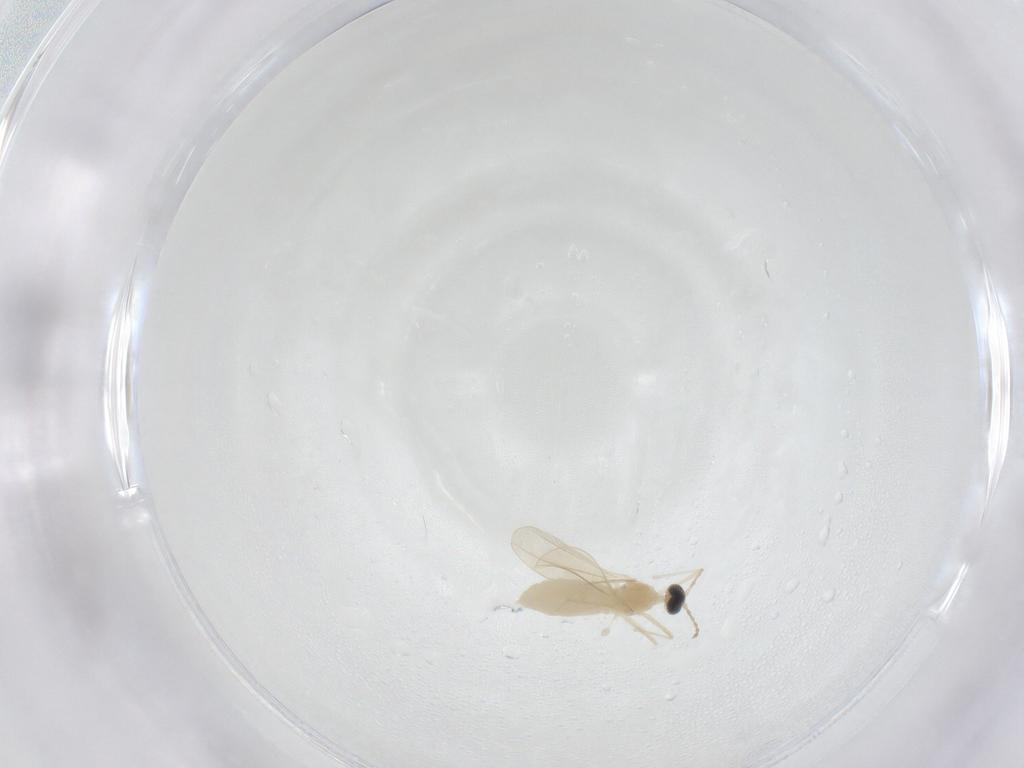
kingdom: Animalia
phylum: Arthropoda
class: Insecta
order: Diptera
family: Cecidomyiidae
